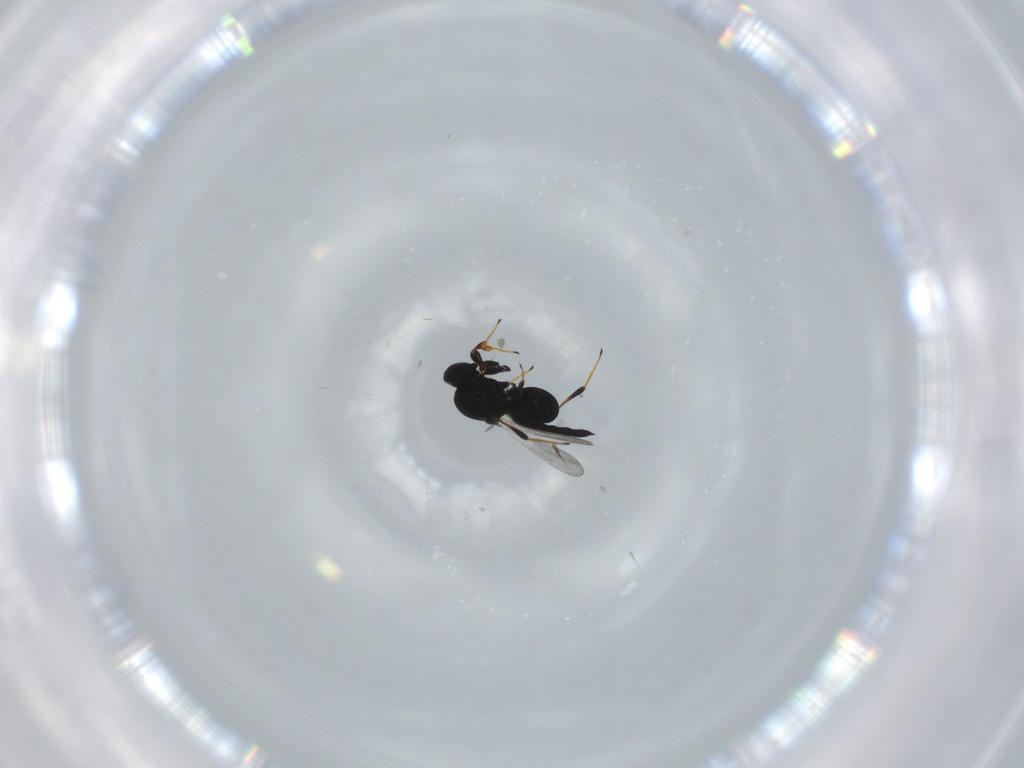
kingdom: Animalia
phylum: Arthropoda
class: Insecta
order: Hymenoptera
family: Platygastridae
